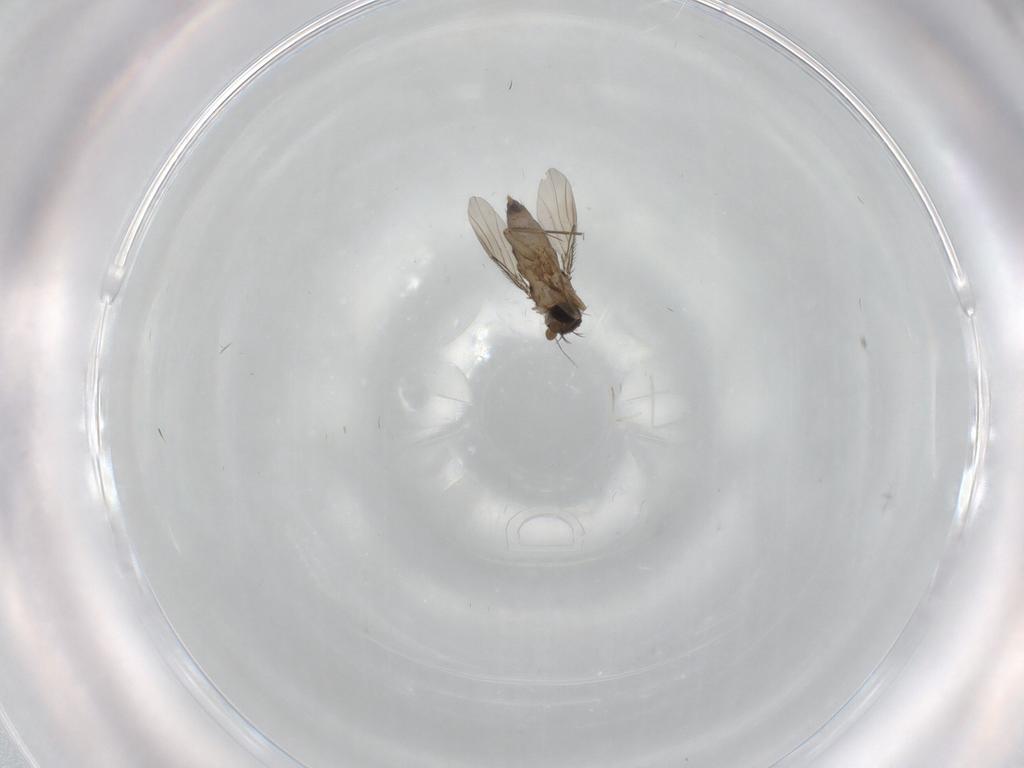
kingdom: Animalia
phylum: Arthropoda
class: Insecta
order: Diptera
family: Phoridae
